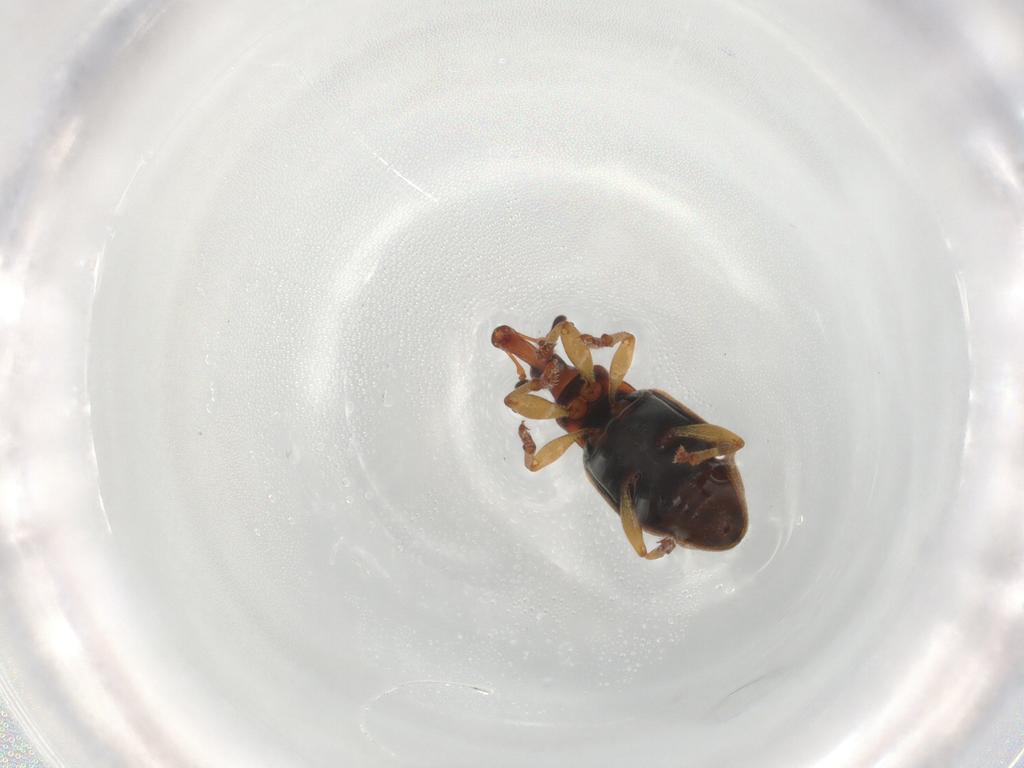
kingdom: Animalia
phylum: Arthropoda
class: Insecta
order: Coleoptera
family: Curculionidae
